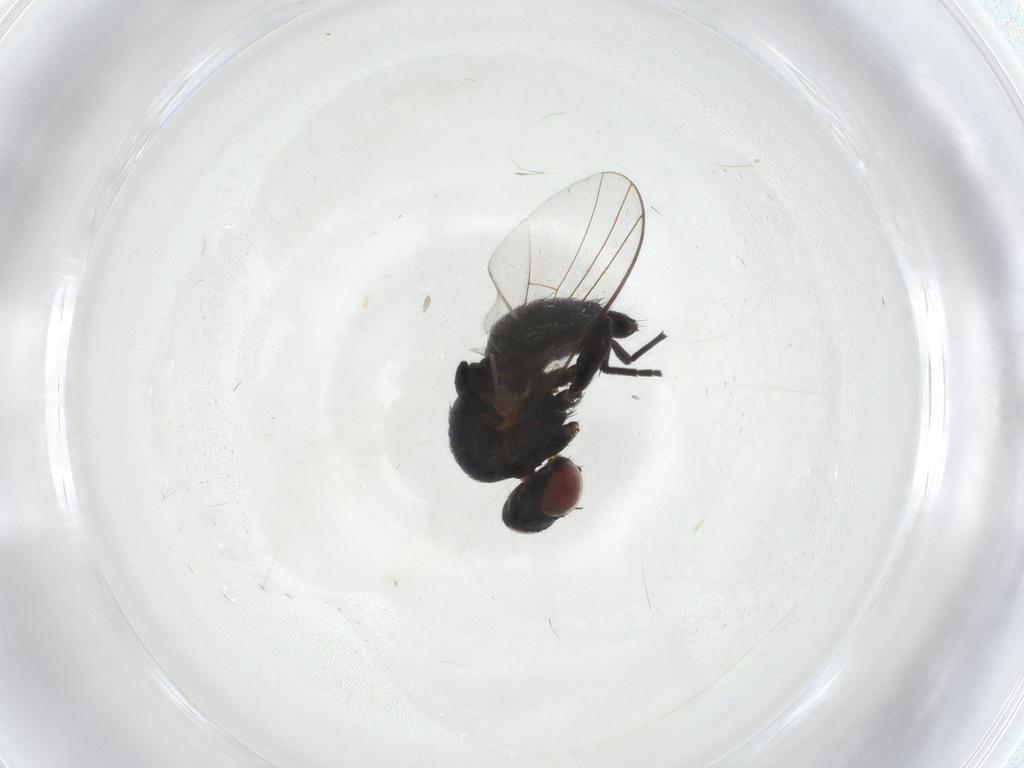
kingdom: Animalia
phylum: Arthropoda
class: Insecta
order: Diptera
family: Agromyzidae
